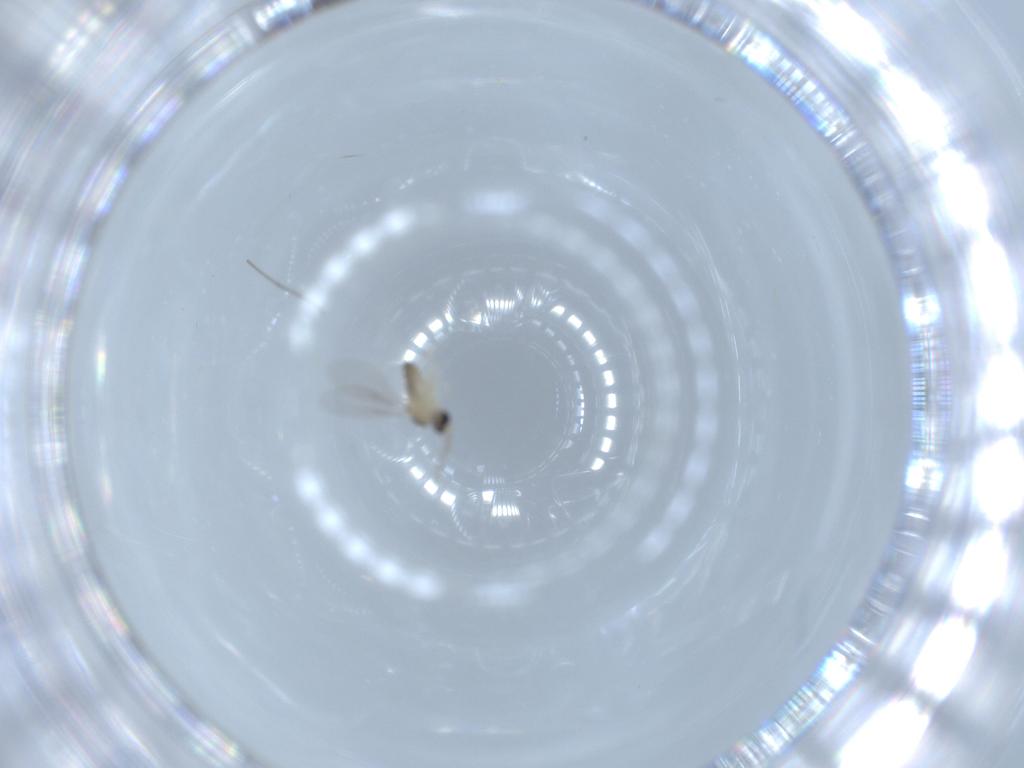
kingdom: Animalia
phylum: Arthropoda
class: Insecta
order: Diptera
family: Cecidomyiidae
